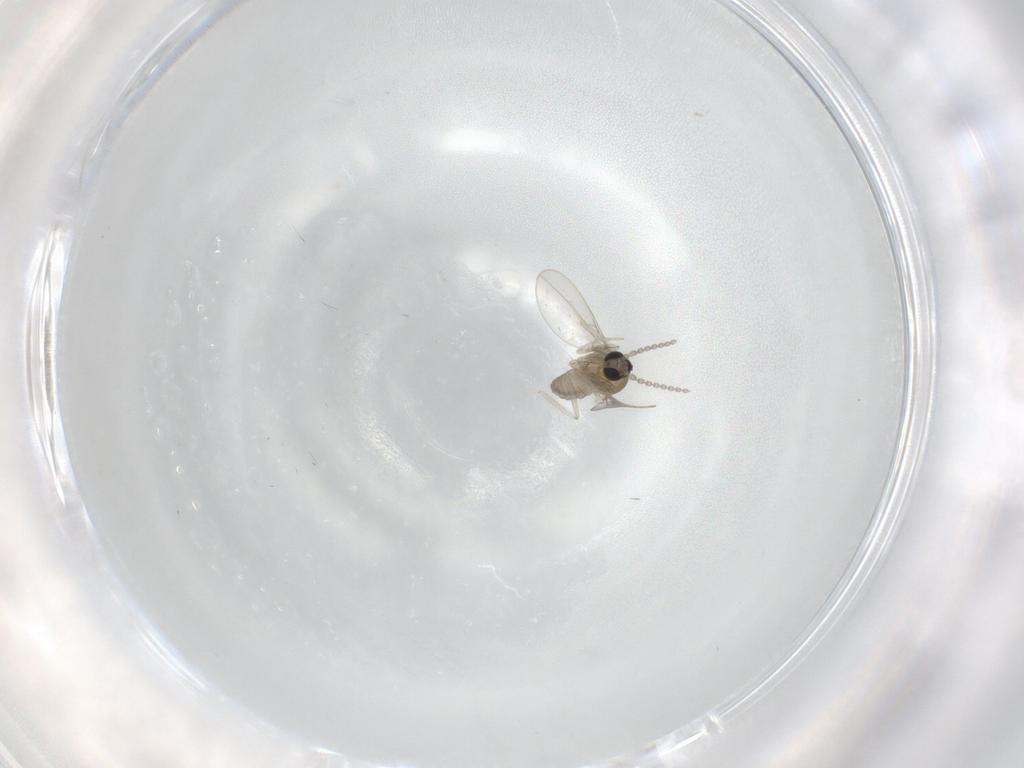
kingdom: Animalia
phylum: Arthropoda
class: Insecta
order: Diptera
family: Cecidomyiidae
